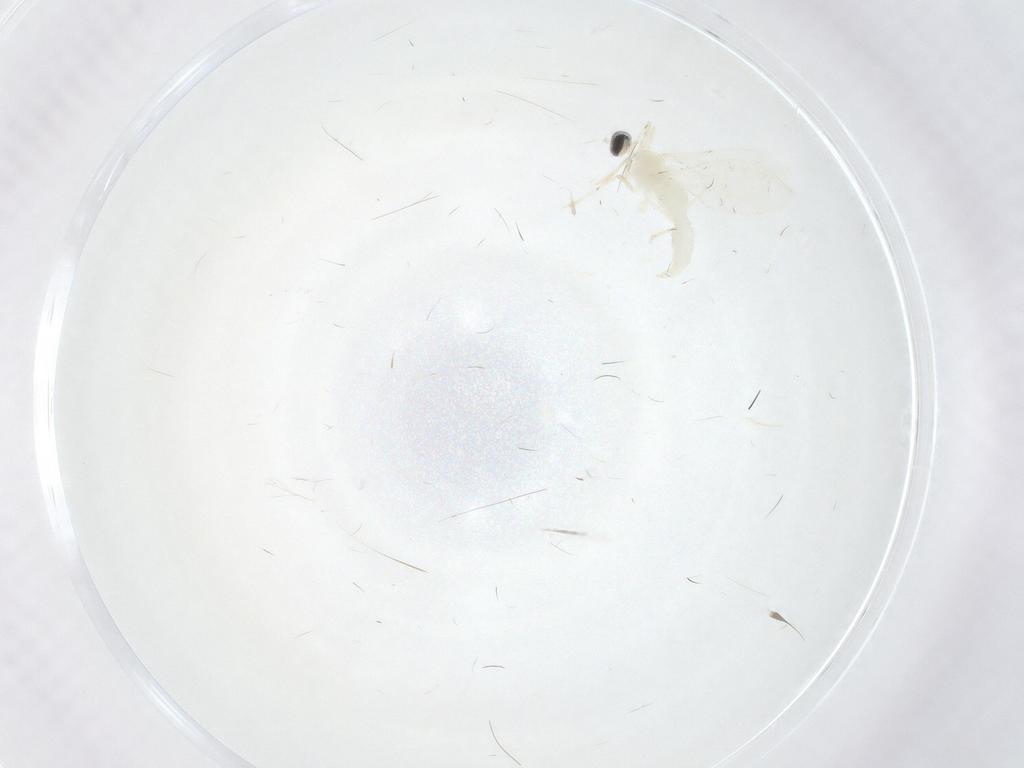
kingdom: Animalia
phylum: Arthropoda
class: Insecta
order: Diptera
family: Cecidomyiidae
